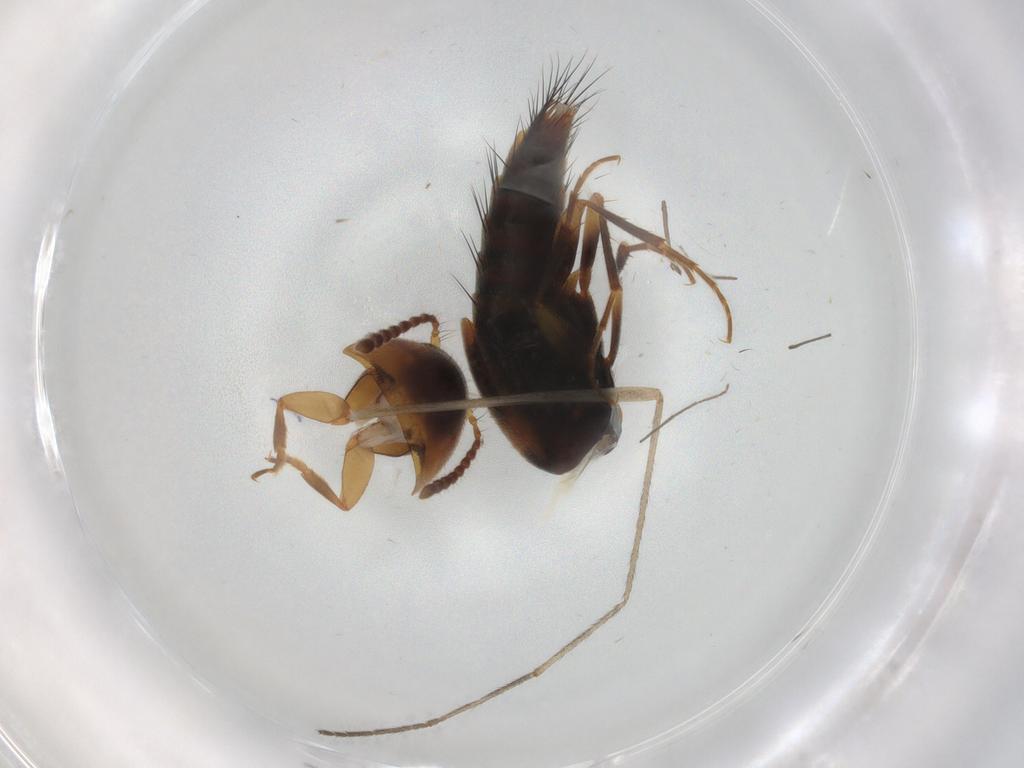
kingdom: Animalia
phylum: Arthropoda
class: Insecta
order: Coleoptera
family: Staphylinidae
